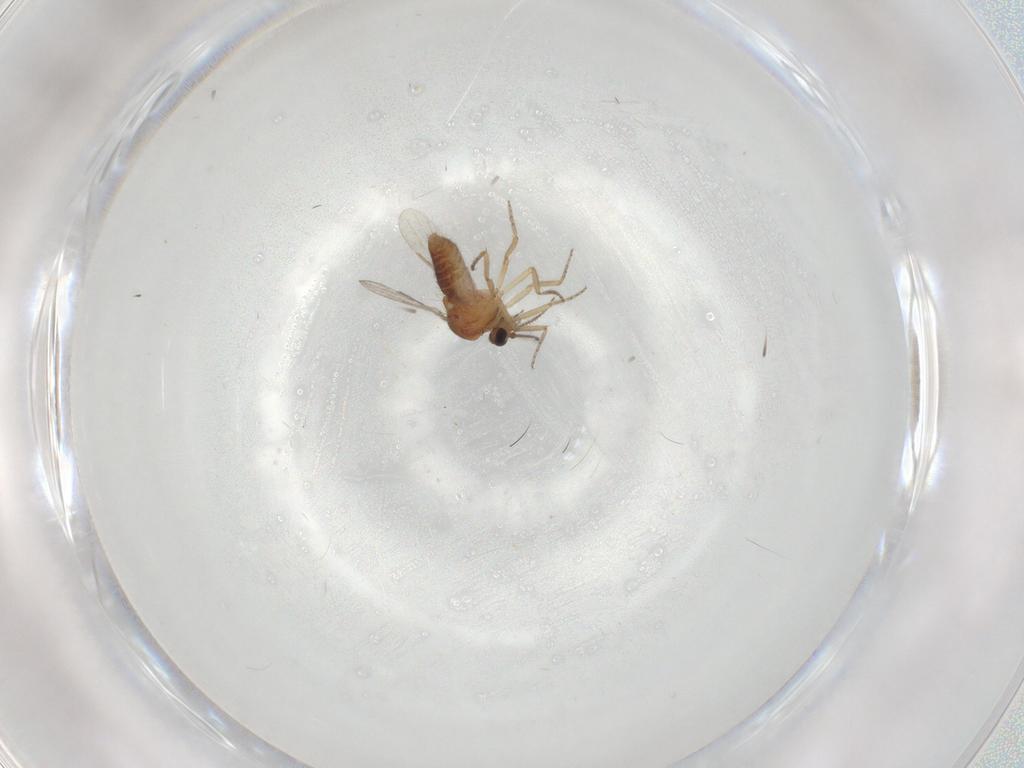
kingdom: Animalia
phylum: Arthropoda
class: Insecta
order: Diptera
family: Ceratopogonidae
